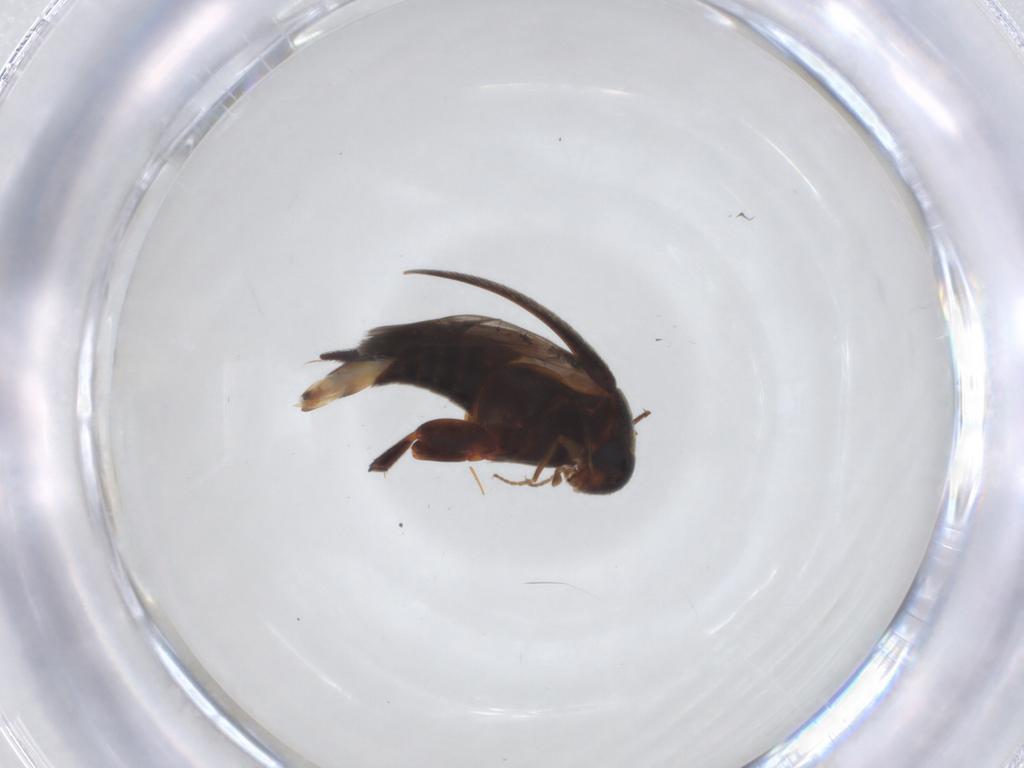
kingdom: Animalia
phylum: Arthropoda
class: Insecta
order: Coleoptera
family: Mordellidae
